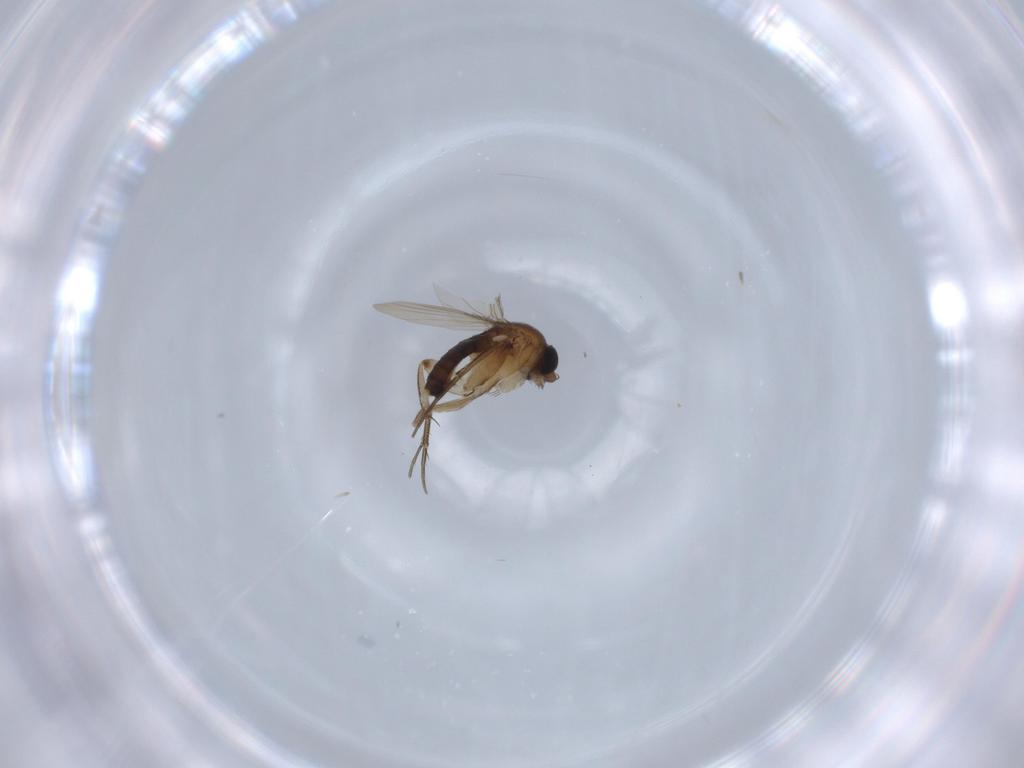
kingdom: Animalia
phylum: Arthropoda
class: Insecta
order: Diptera
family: Phoridae
